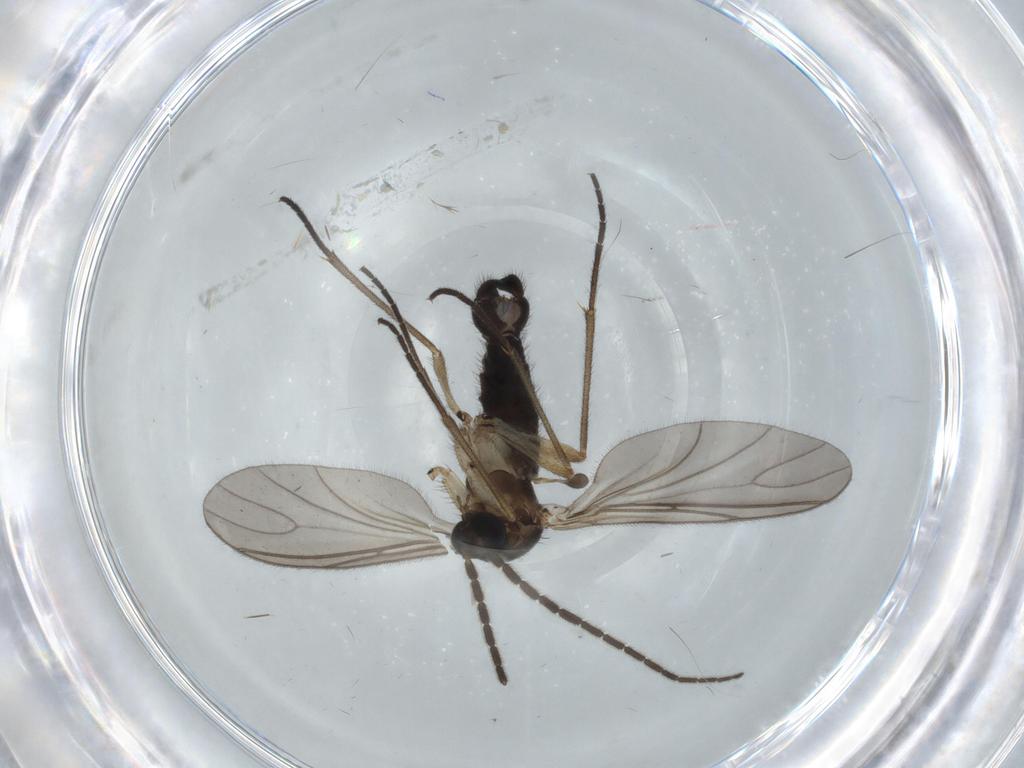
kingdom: Animalia
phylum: Arthropoda
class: Insecta
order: Diptera
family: Sciaridae
